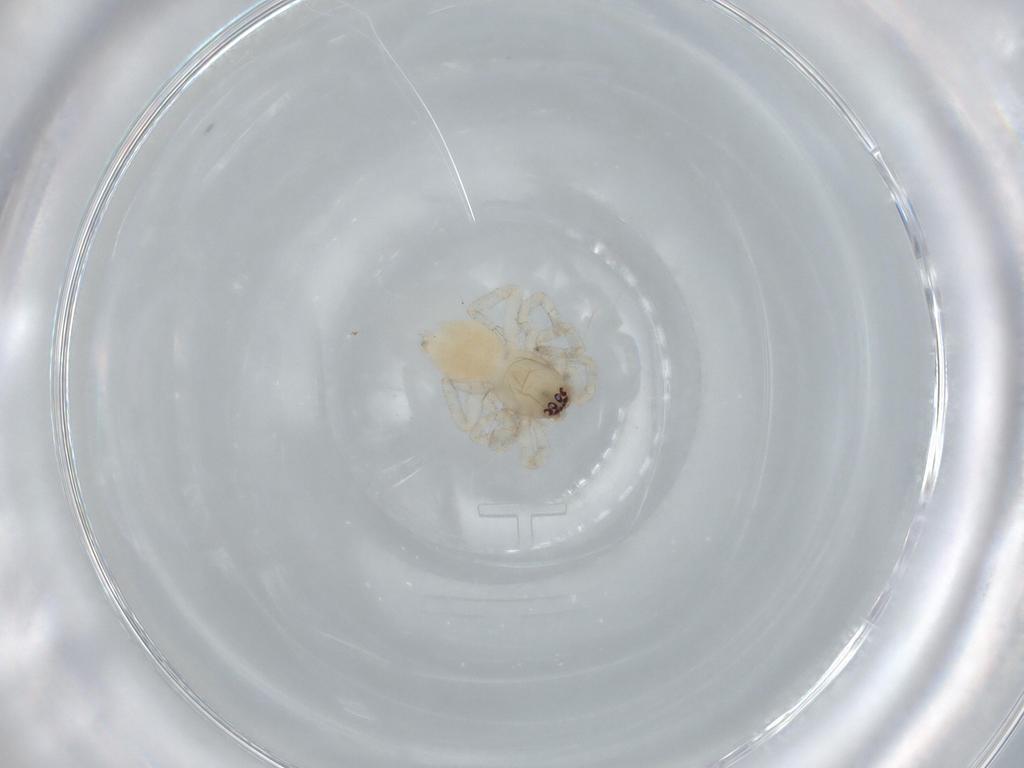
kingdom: Animalia
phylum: Arthropoda
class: Arachnida
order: Araneae
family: Anyphaenidae
